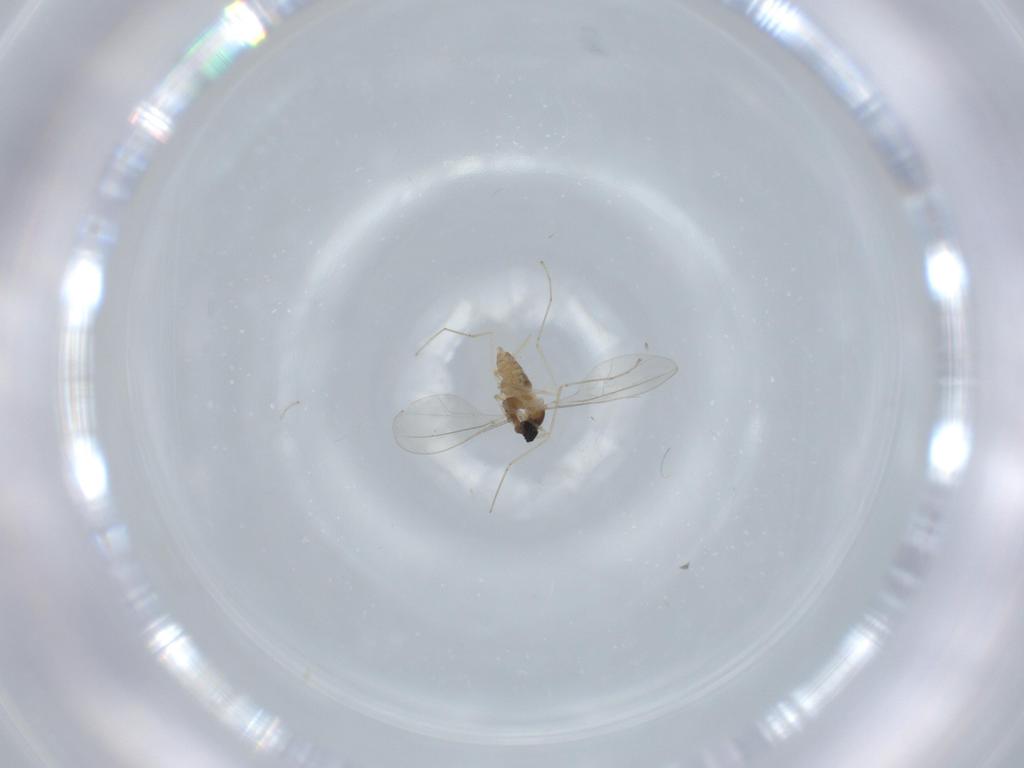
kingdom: Animalia
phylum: Arthropoda
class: Insecta
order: Diptera
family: Cecidomyiidae
